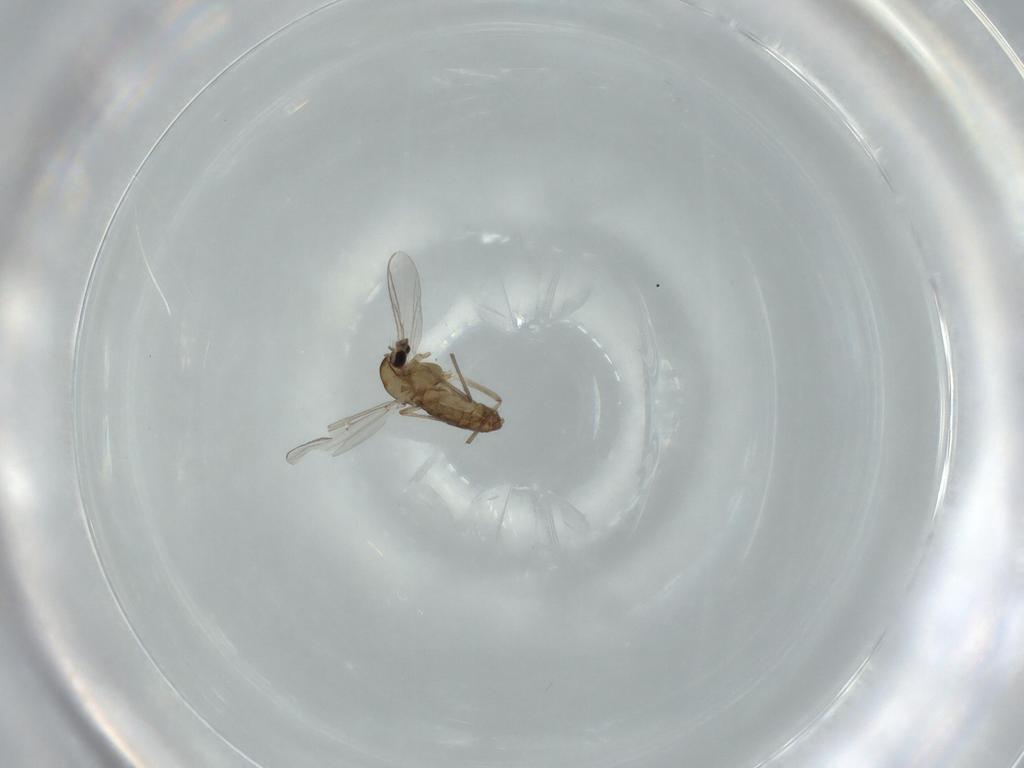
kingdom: Animalia
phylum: Arthropoda
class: Insecta
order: Diptera
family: Chironomidae
